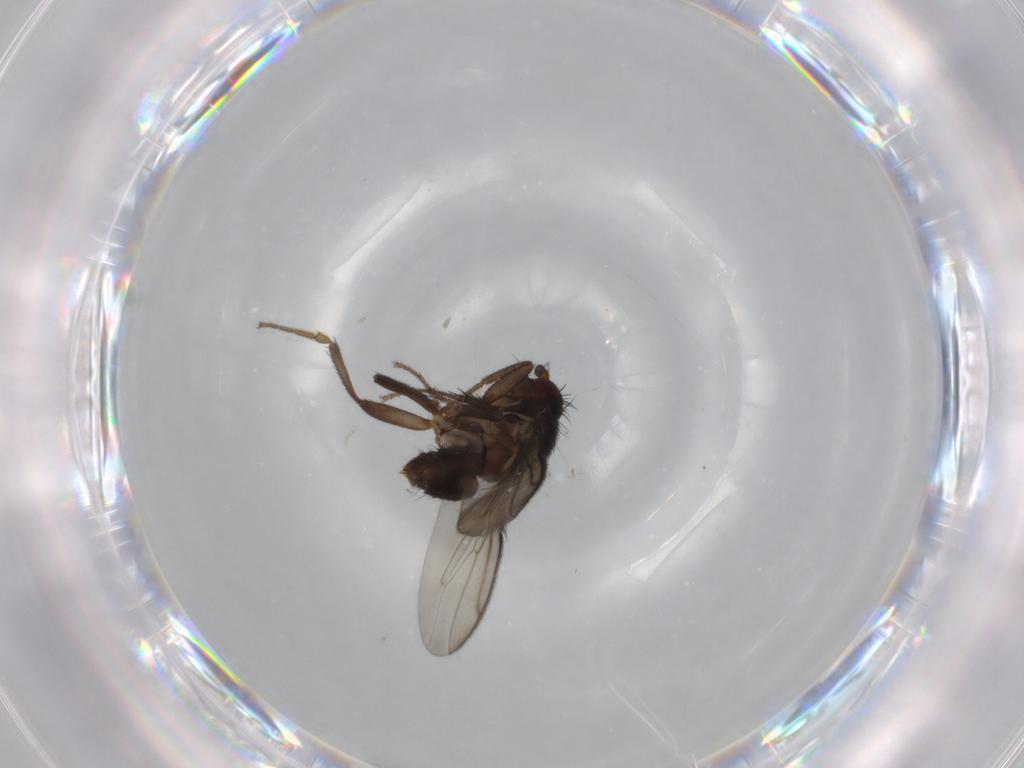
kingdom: Animalia
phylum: Arthropoda
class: Insecta
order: Diptera
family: Sphaeroceridae
